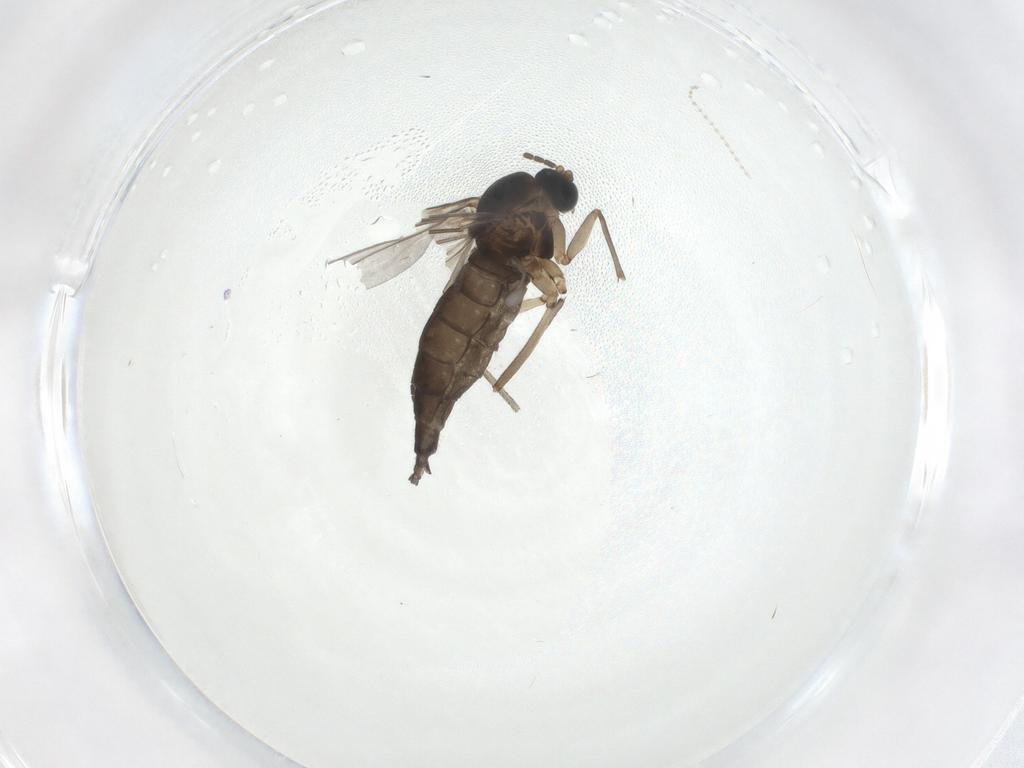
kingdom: Animalia
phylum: Arthropoda
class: Insecta
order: Diptera
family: Sciaridae
